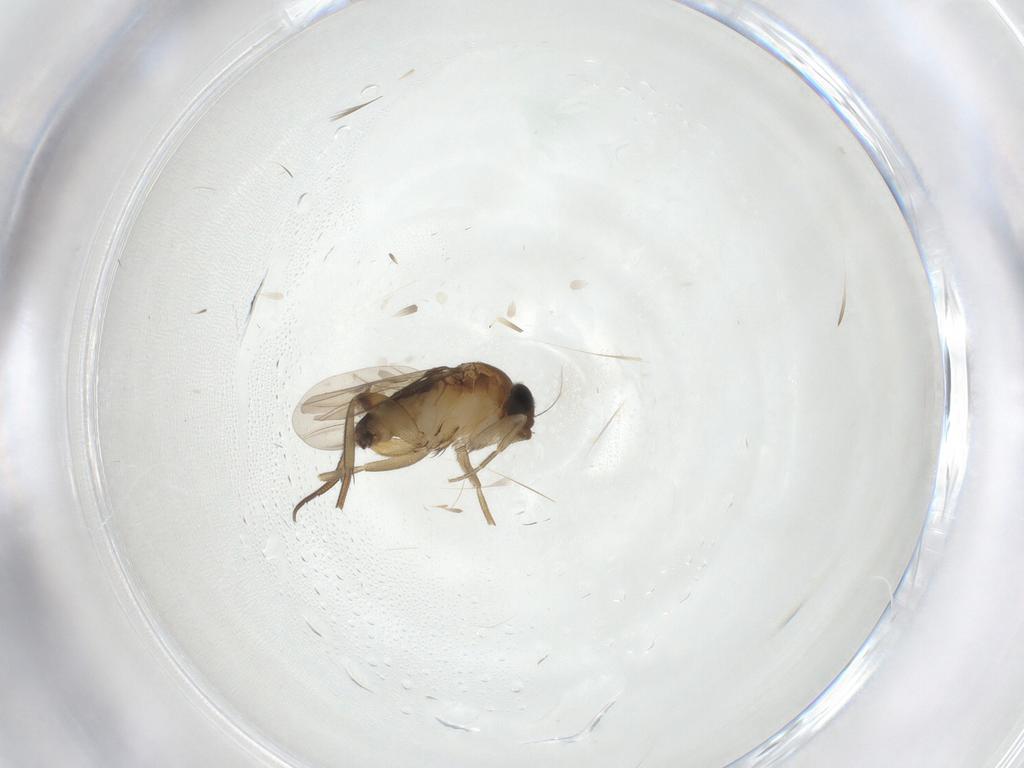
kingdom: Animalia
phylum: Arthropoda
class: Insecta
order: Diptera
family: Phoridae
